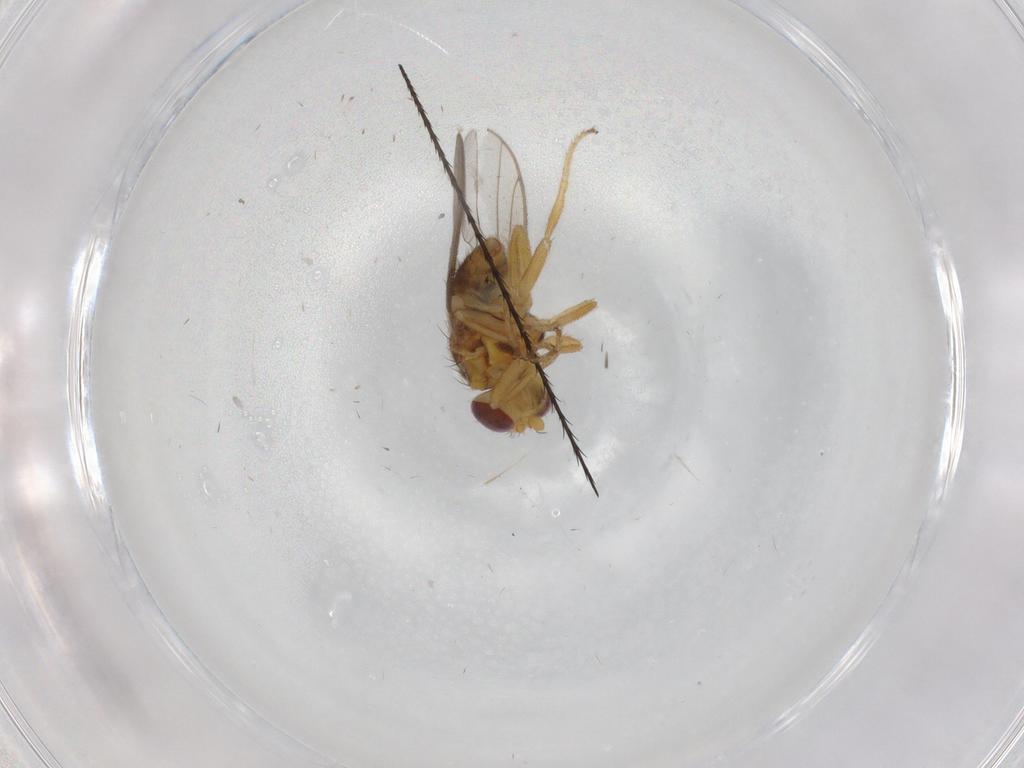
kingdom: Animalia
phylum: Arthropoda
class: Insecta
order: Diptera
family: Chloropidae
